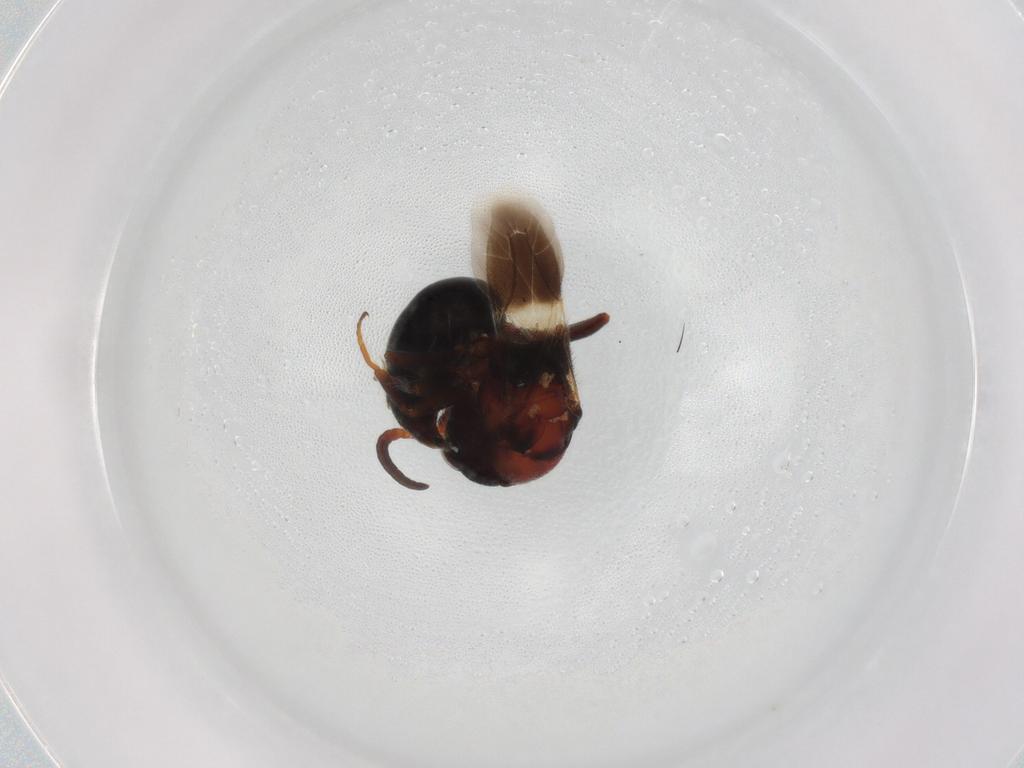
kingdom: Animalia
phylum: Arthropoda
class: Insecta
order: Hymenoptera
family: Bethylidae
